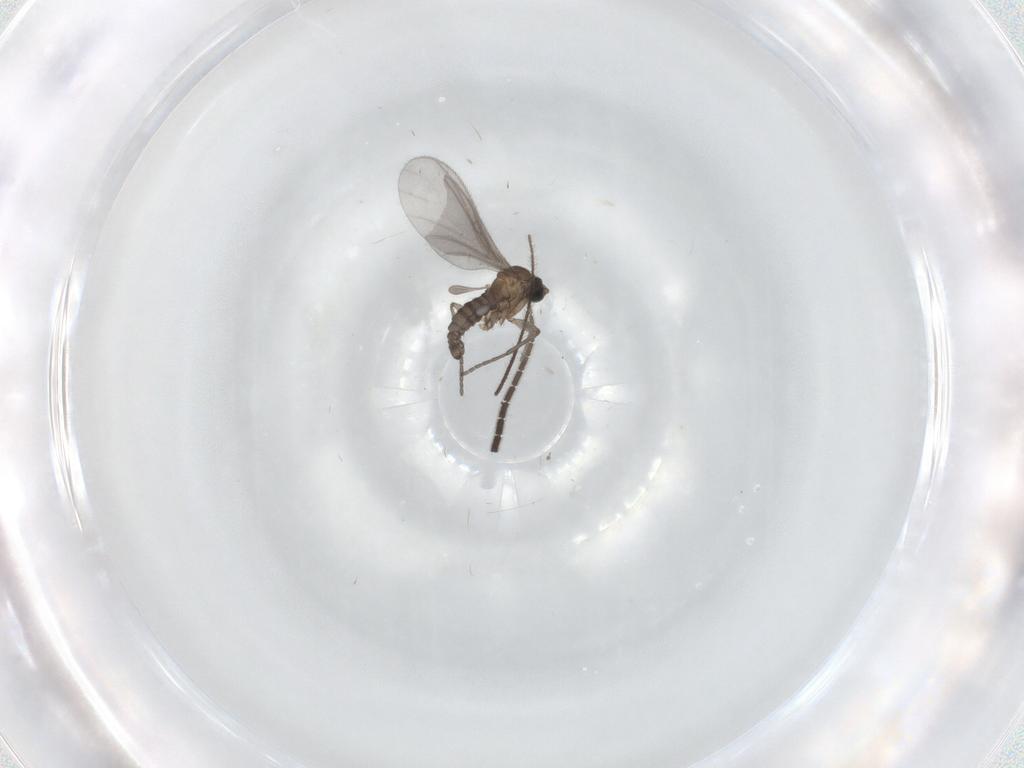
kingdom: Animalia
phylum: Arthropoda
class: Insecta
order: Diptera
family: Sciaridae
